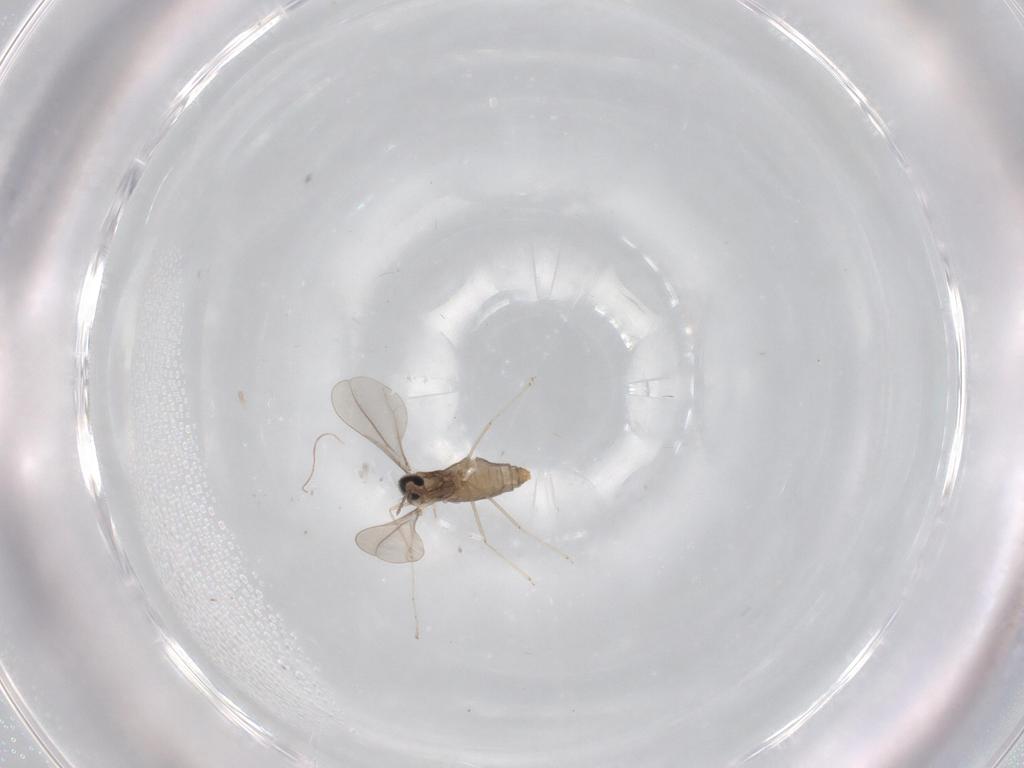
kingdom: Animalia
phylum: Arthropoda
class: Insecta
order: Diptera
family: Cecidomyiidae
